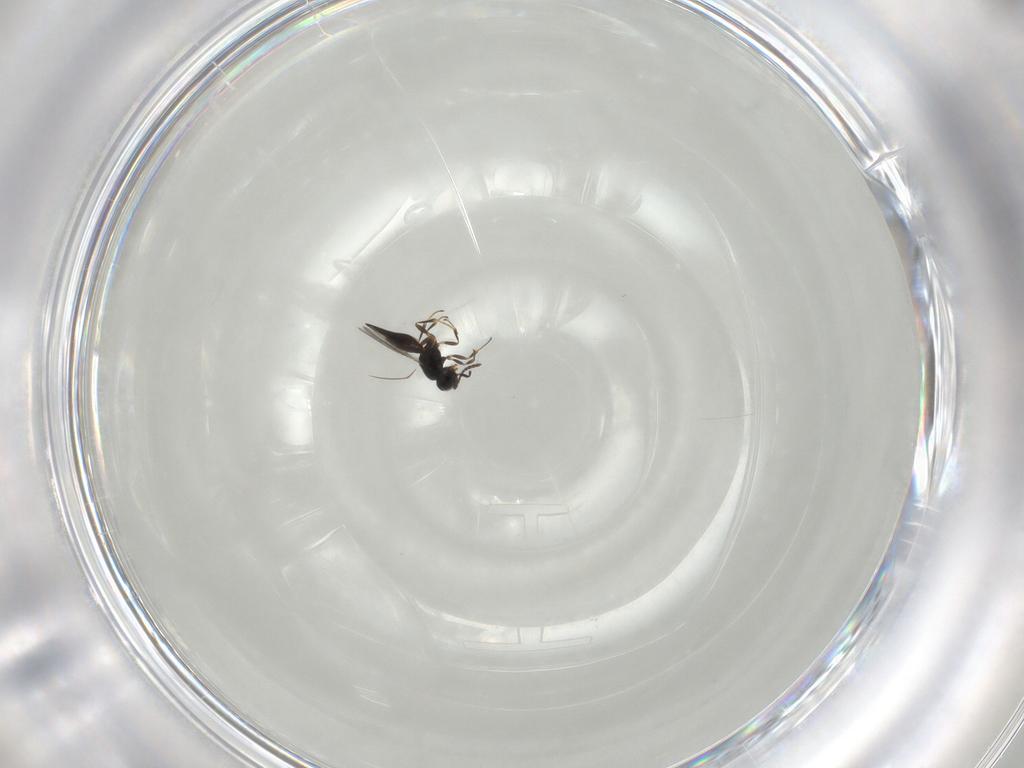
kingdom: Animalia
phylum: Arthropoda
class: Insecta
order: Hymenoptera
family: Scelionidae
